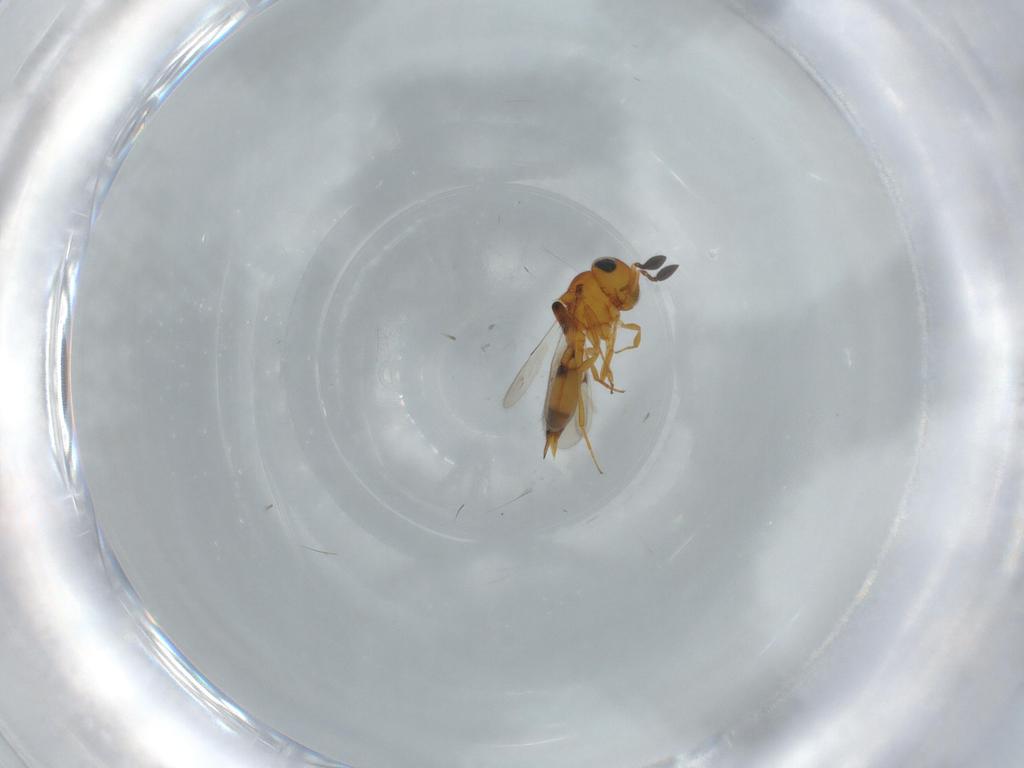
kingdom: Animalia
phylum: Arthropoda
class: Insecta
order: Hymenoptera
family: Scelionidae
